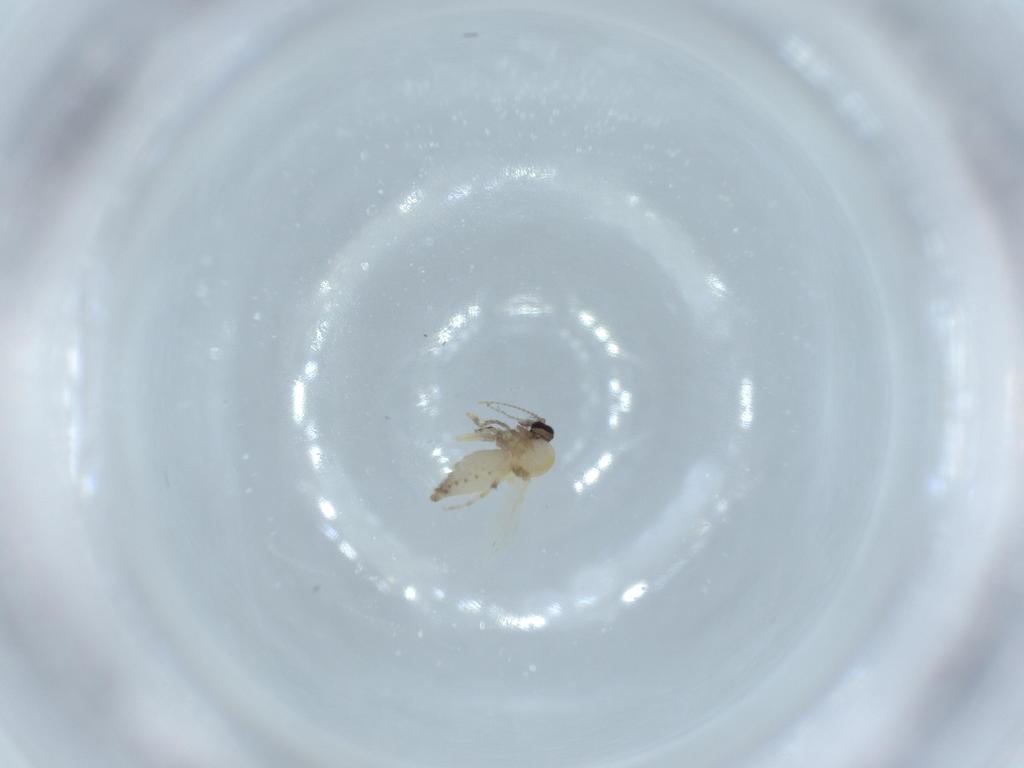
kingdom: Animalia
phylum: Arthropoda
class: Insecta
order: Diptera
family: Ceratopogonidae
